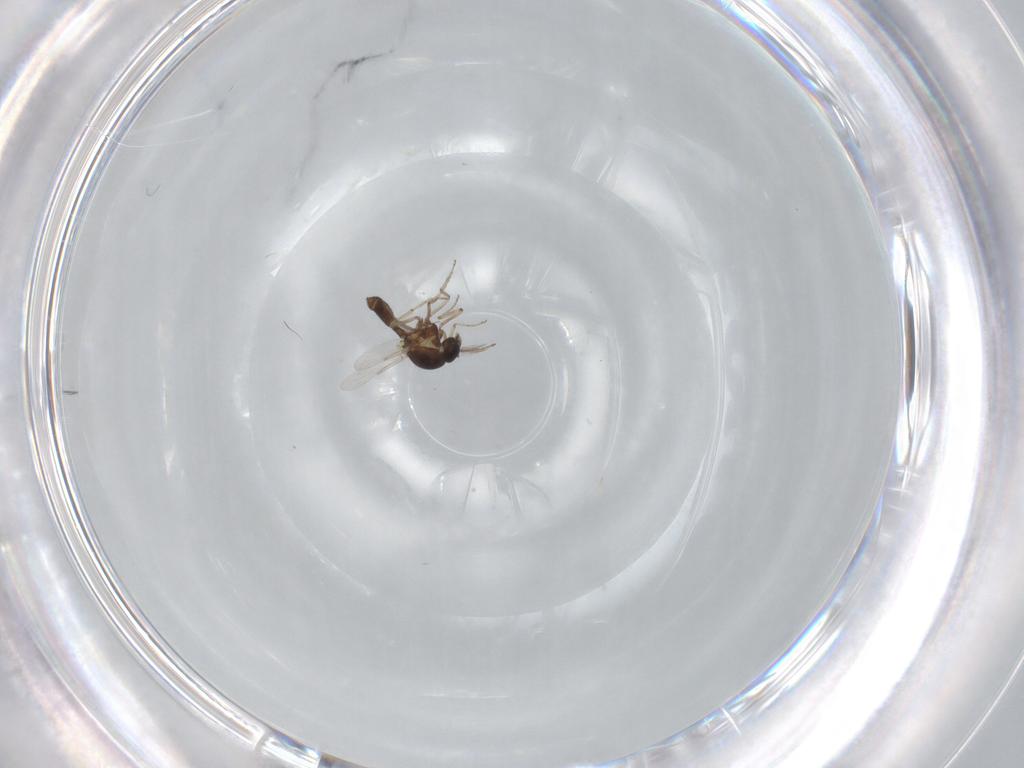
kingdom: Animalia
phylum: Arthropoda
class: Insecta
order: Diptera
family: Ceratopogonidae
